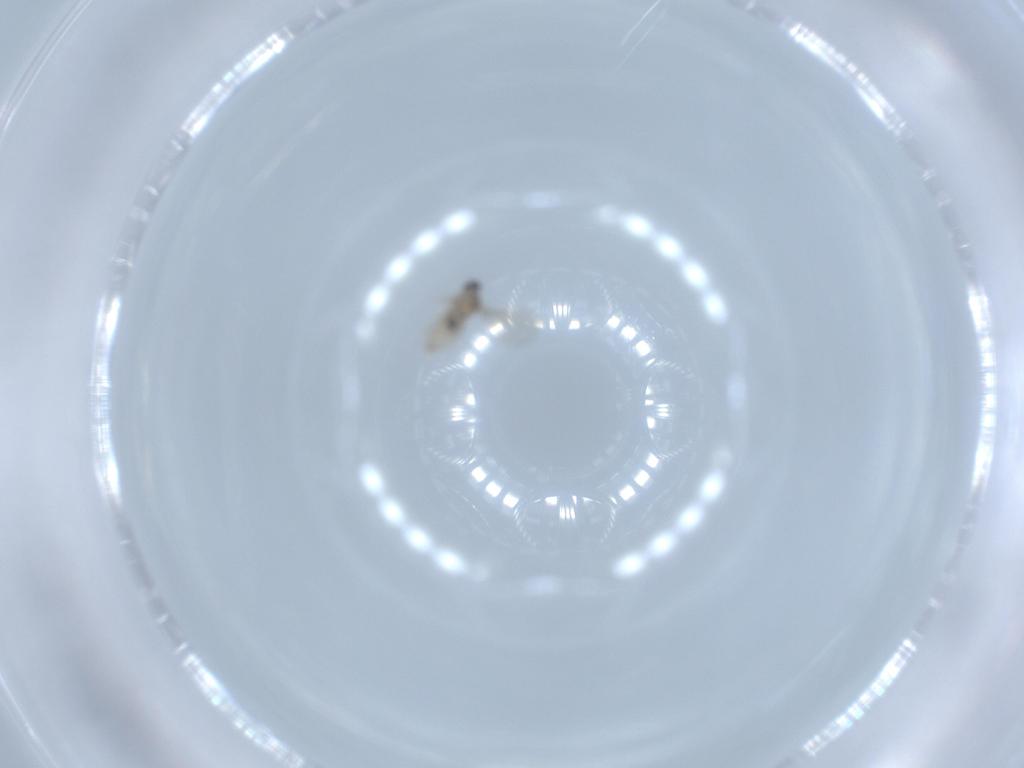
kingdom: Animalia
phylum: Arthropoda
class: Insecta
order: Diptera
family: Cecidomyiidae
